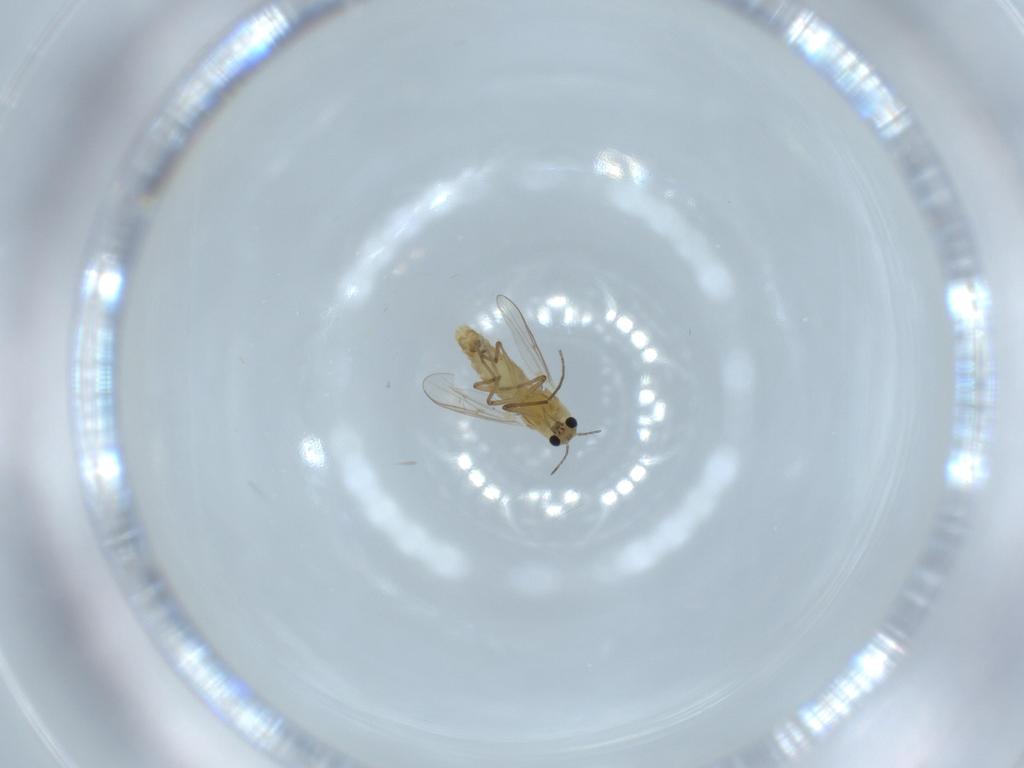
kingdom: Animalia
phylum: Arthropoda
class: Insecta
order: Diptera
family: Chironomidae
